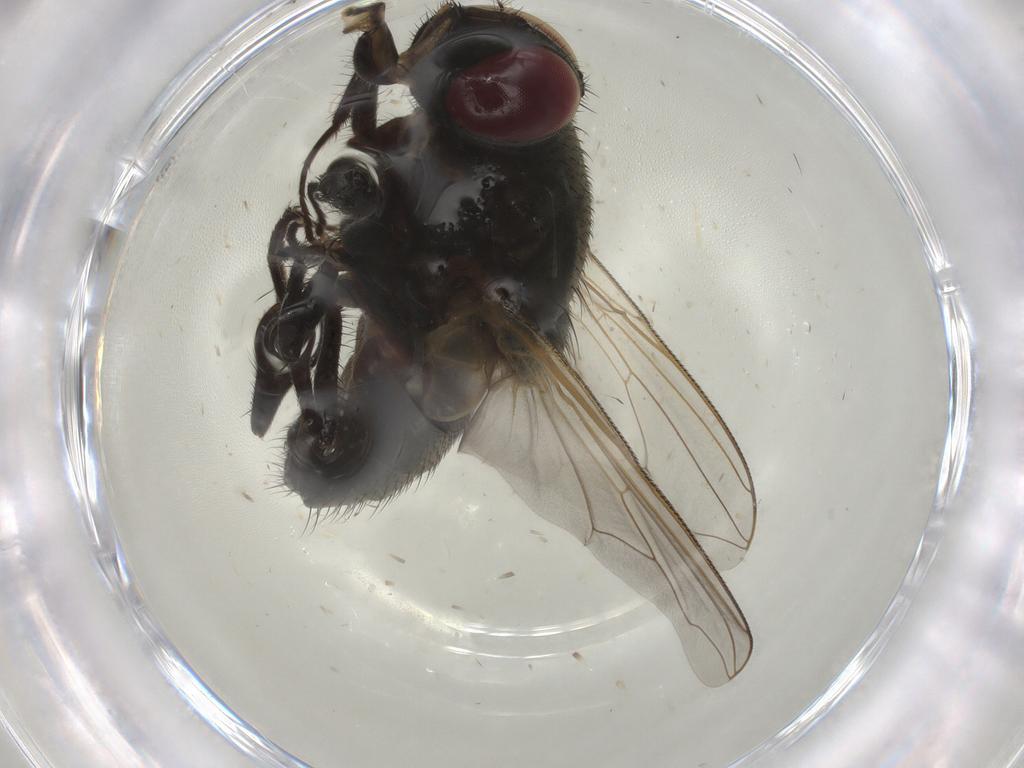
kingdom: Animalia
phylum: Arthropoda
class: Insecta
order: Diptera
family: Muscidae
